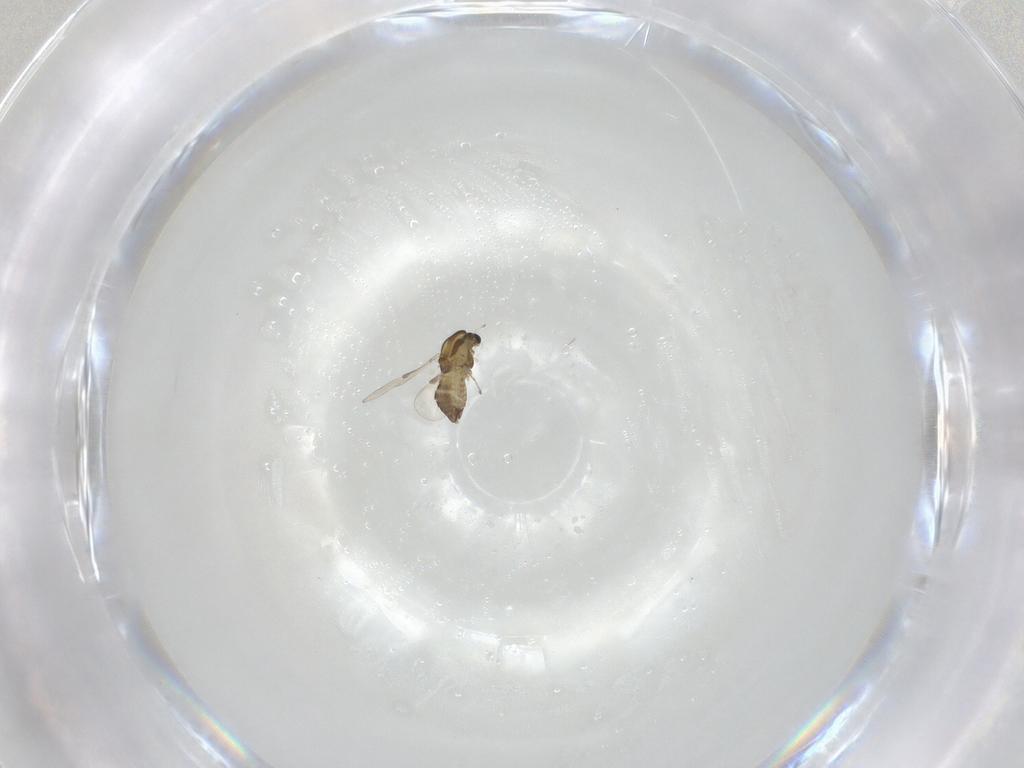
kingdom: Animalia
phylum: Arthropoda
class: Insecta
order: Diptera
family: Chironomidae
